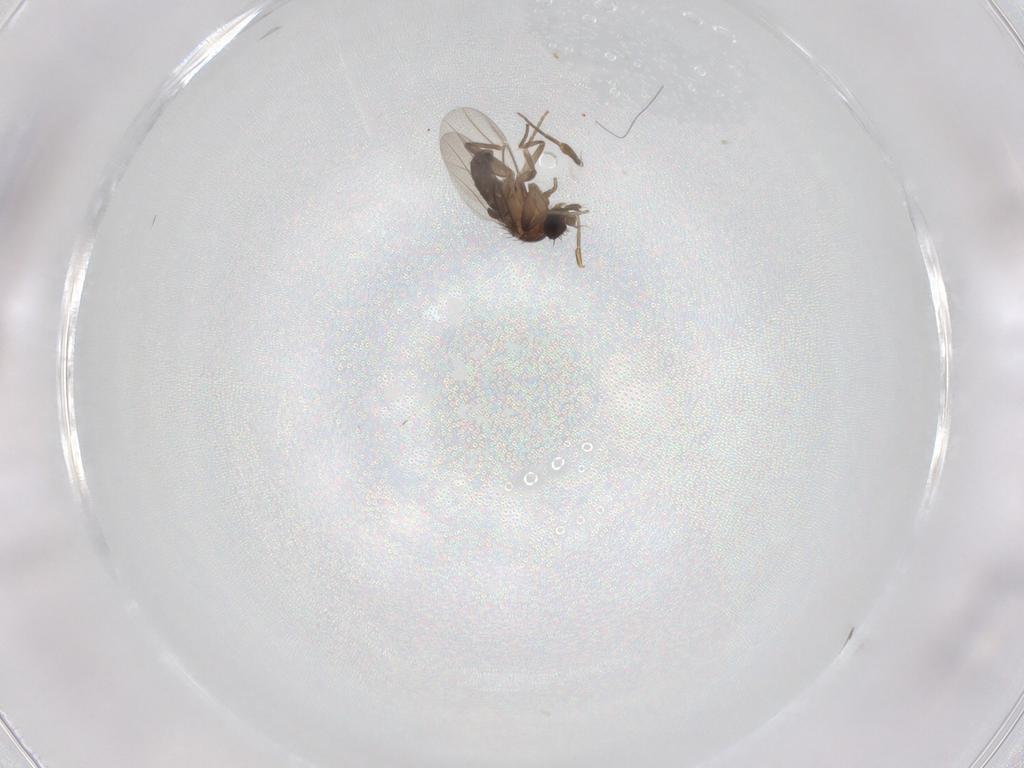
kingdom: Animalia
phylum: Arthropoda
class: Insecta
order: Diptera
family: Phoridae
